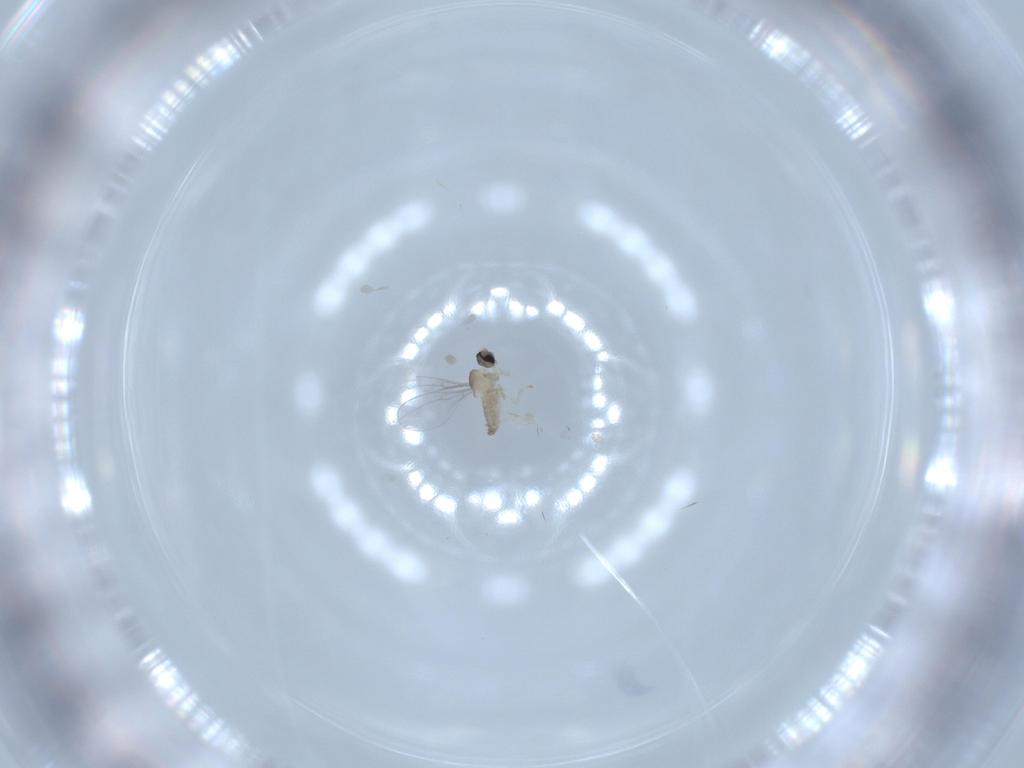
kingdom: Animalia
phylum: Arthropoda
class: Insecta
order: Diptera
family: Cecidomyiidae
